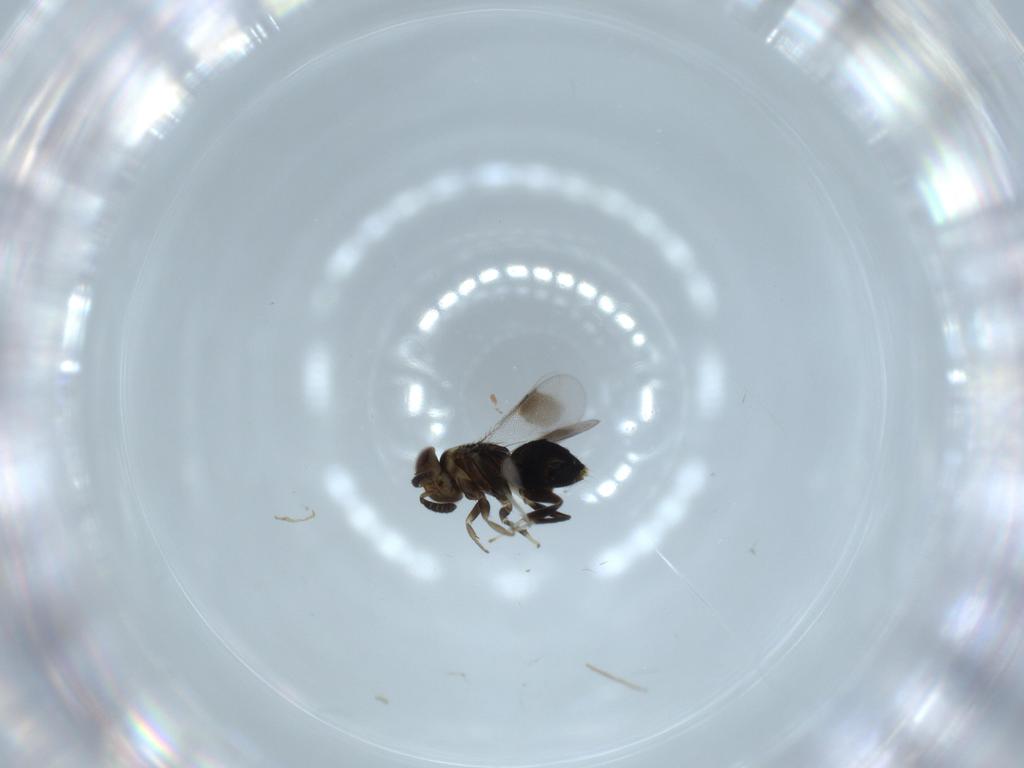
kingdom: Animalia
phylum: Arthropoda
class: Insecta
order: Hymenoptera
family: Aphelinidae
